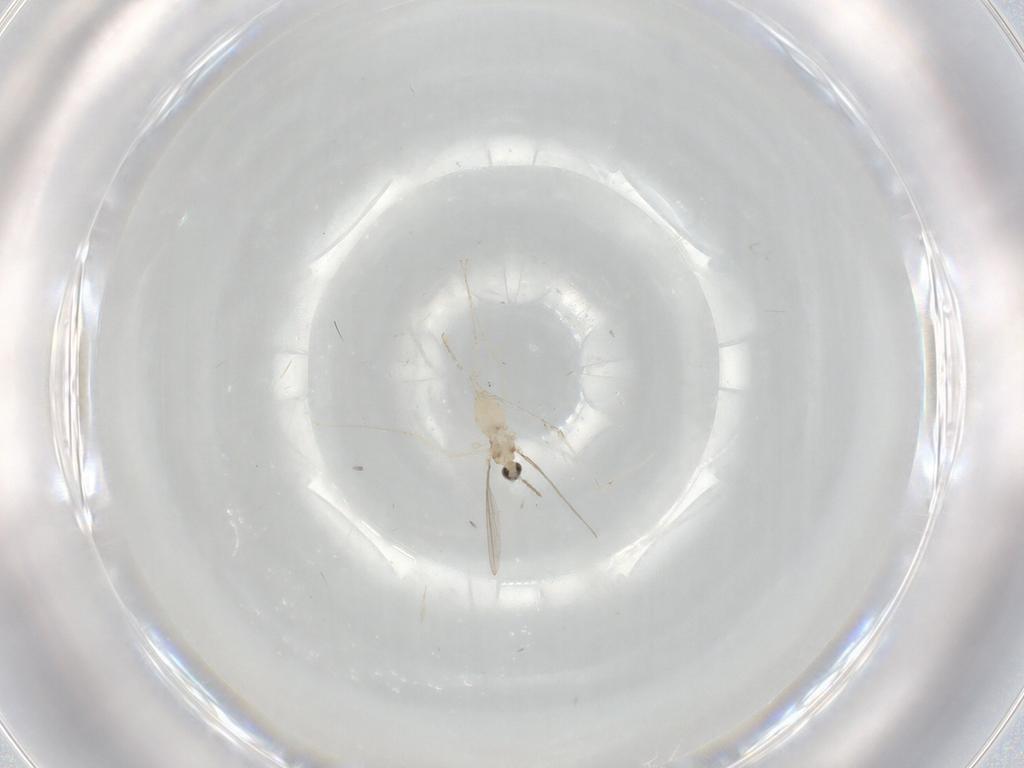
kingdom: Animalia
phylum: Arthropoda
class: Insecta
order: Diptera
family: Cecidomyiidae
